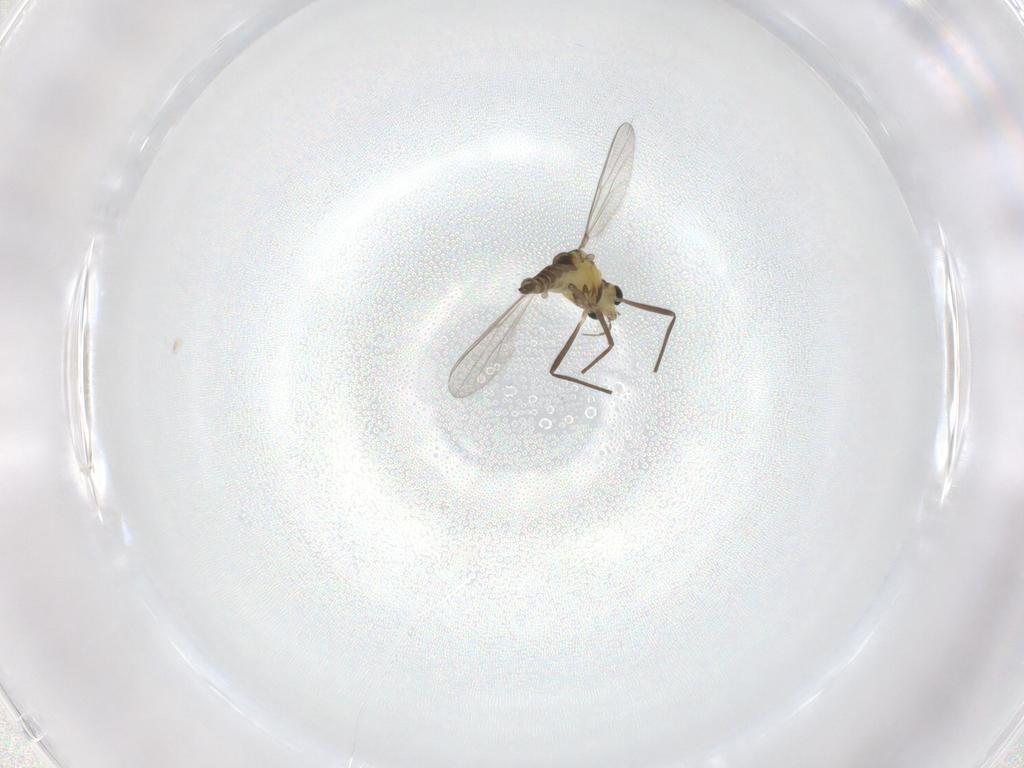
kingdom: Animalia
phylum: Arthropoda
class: Insecta
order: Diptera
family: Chironomidae
